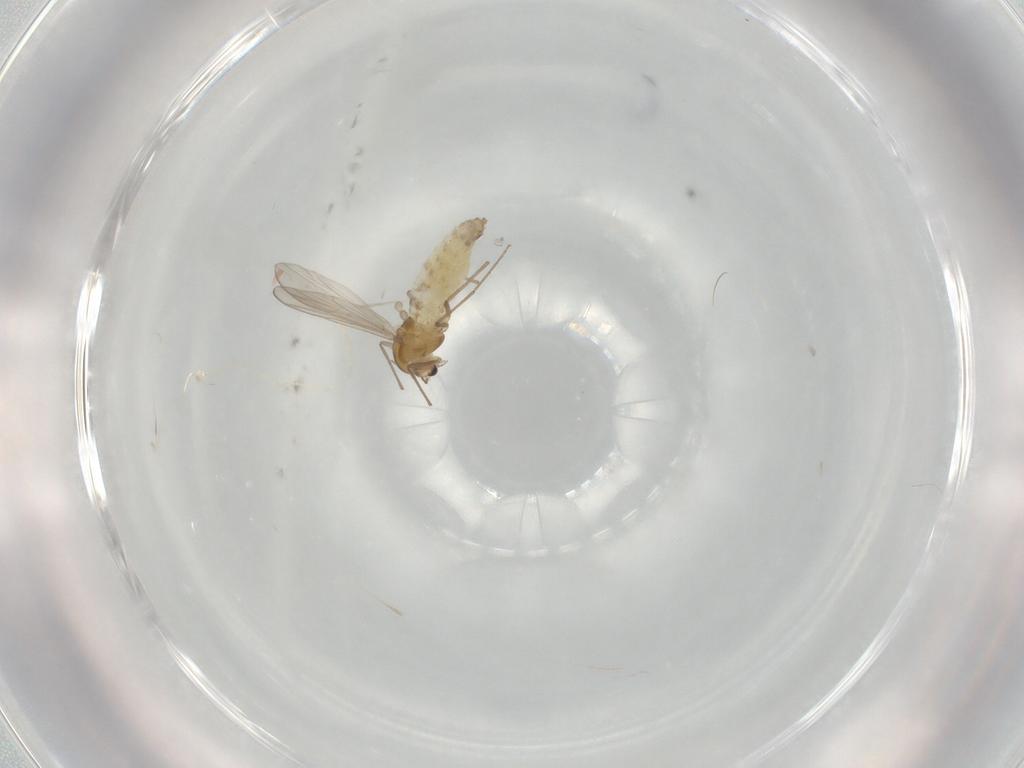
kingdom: Animalia
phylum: Arthropoda
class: Insecta
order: Diptera
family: Chironomidae
